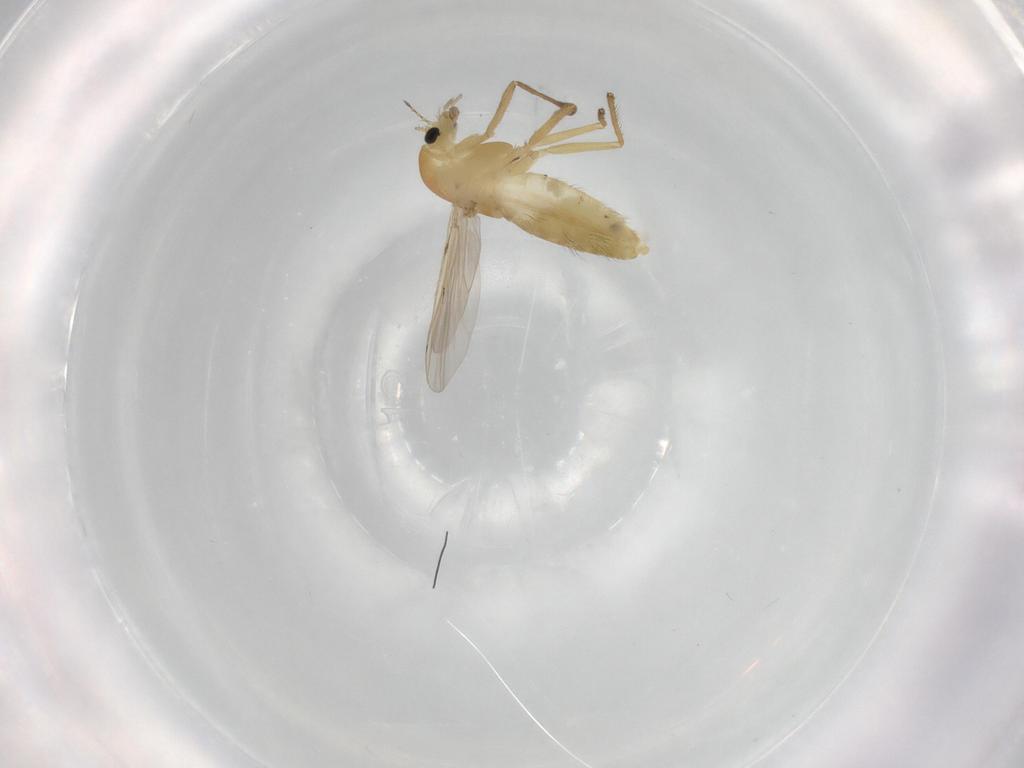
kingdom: Animalia
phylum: Arthropoda
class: Insecta
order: Diptera
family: Chironomidae
